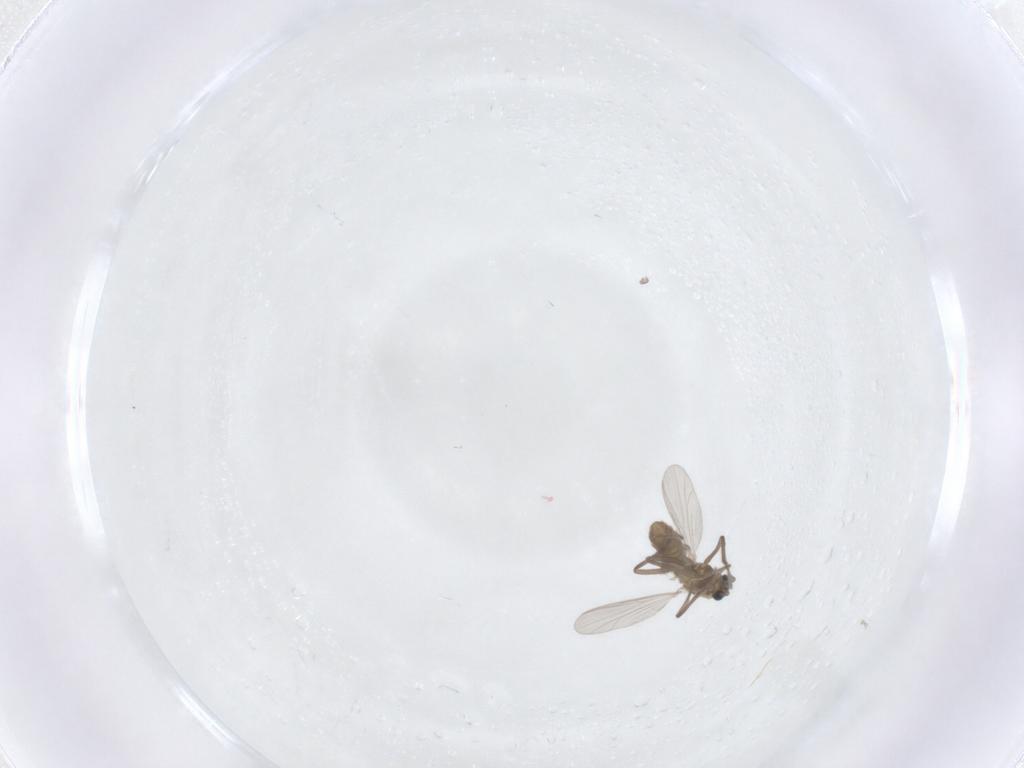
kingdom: Animalia
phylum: Arthropoda
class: Insecta
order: Diptera
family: Chironomidae
